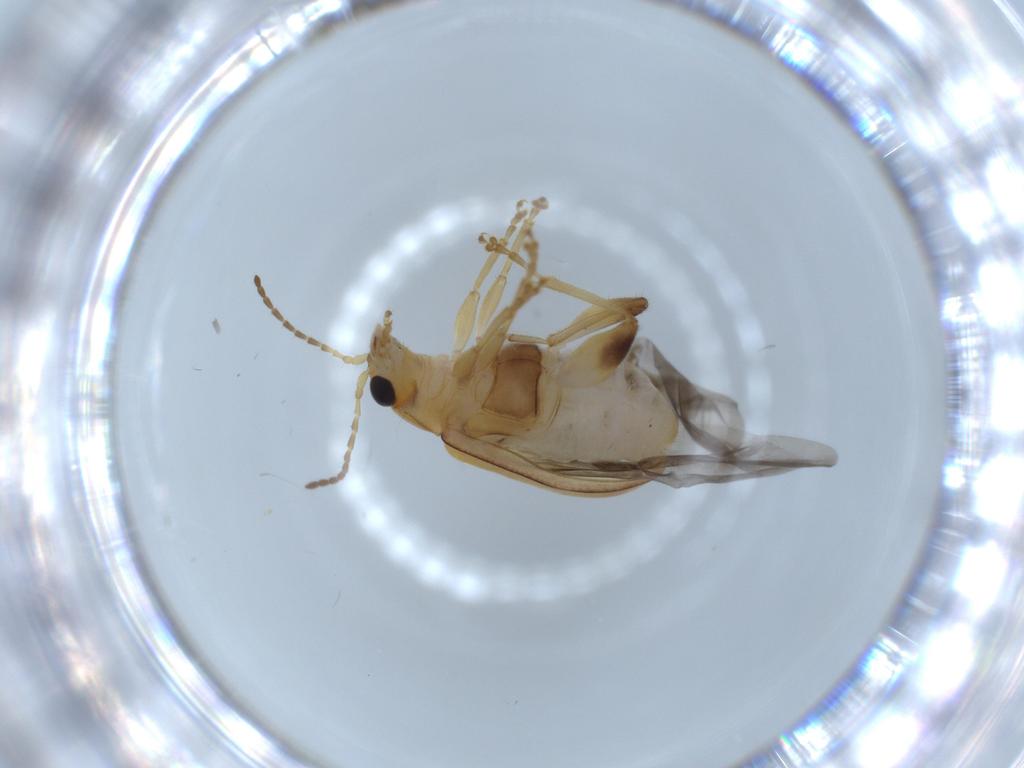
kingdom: Animalia
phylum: Arthropoda
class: Insecta
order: Coleoptera
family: Chrysomelidae
